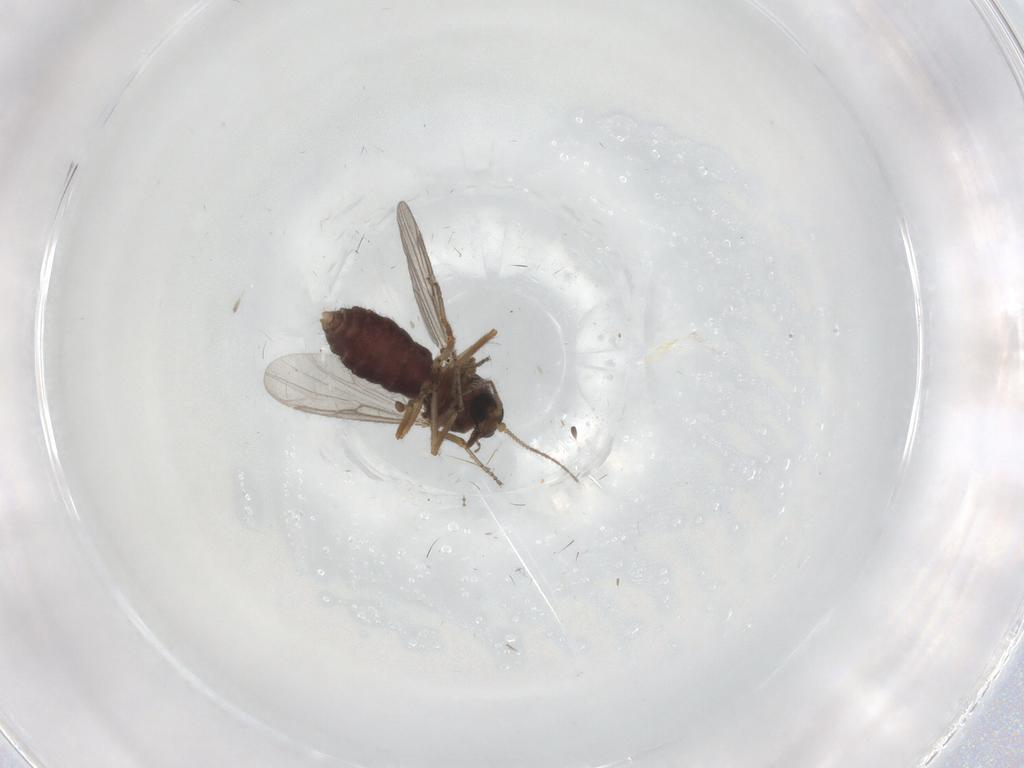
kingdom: Animalia
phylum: Arthropoda
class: Insecta
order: Diptera
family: Ceratopogonidae
